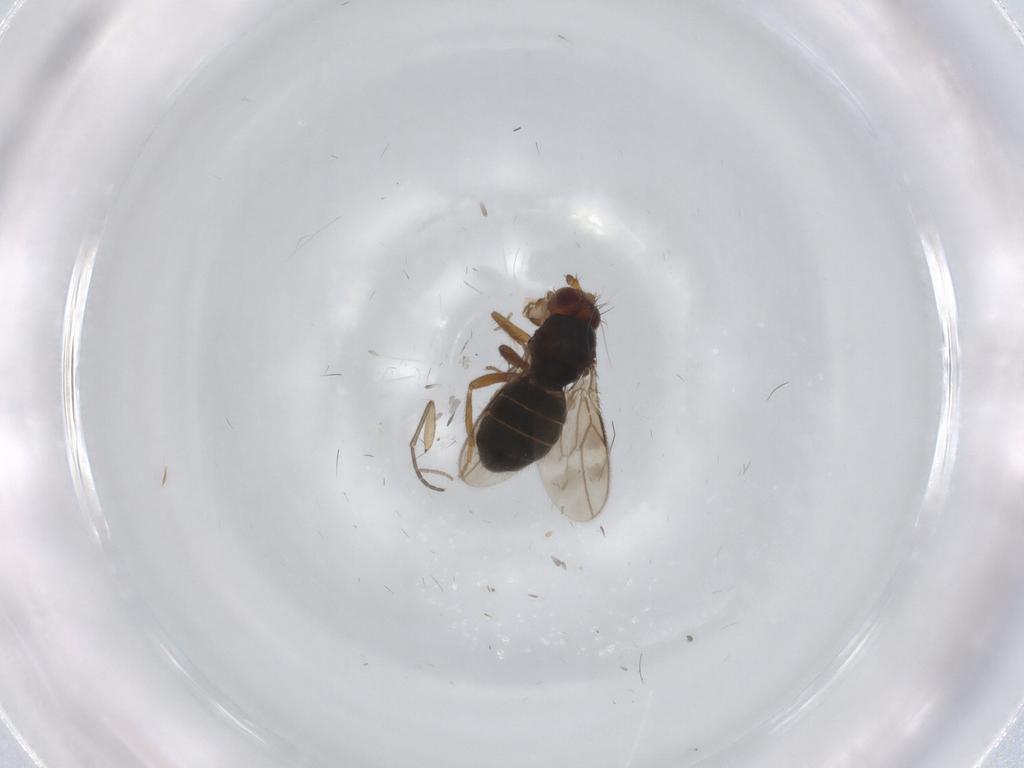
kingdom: Animalia
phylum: Arthropoda
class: Insecta
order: Diptera
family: Sphaeroceridae
